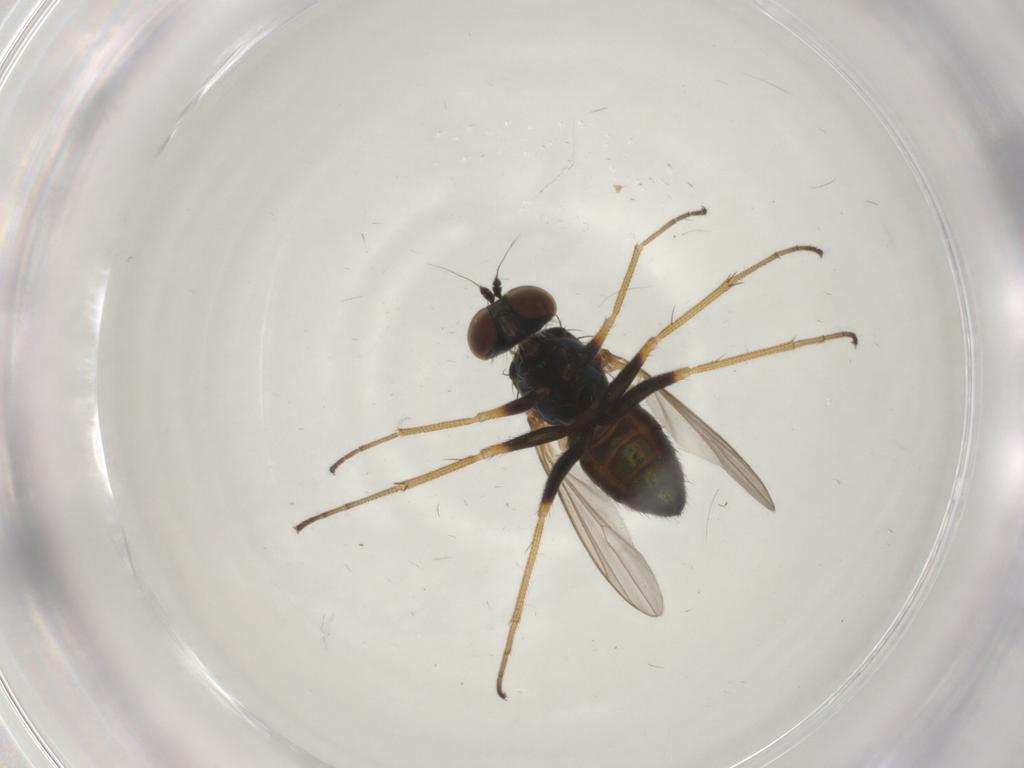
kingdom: Animalia
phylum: Arthropoda
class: Insecta
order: Diptera
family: Dolichopodidae
